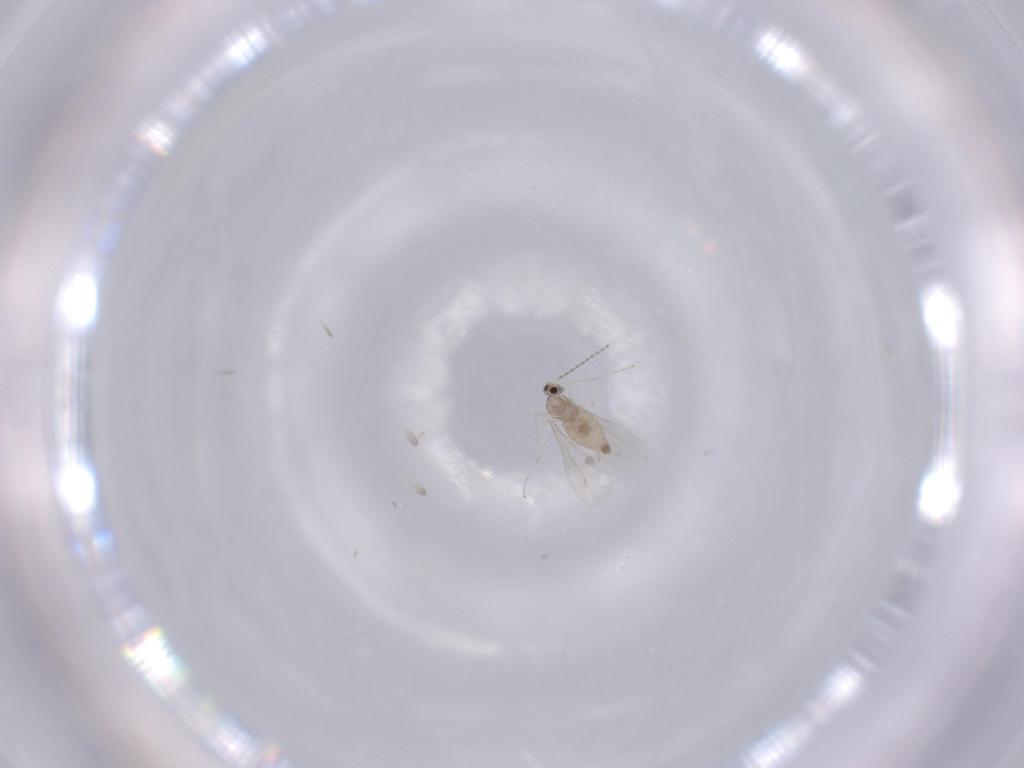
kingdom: Animalia
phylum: Arthropoda
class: Insecta
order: Diptera
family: Cecidomyiidae
